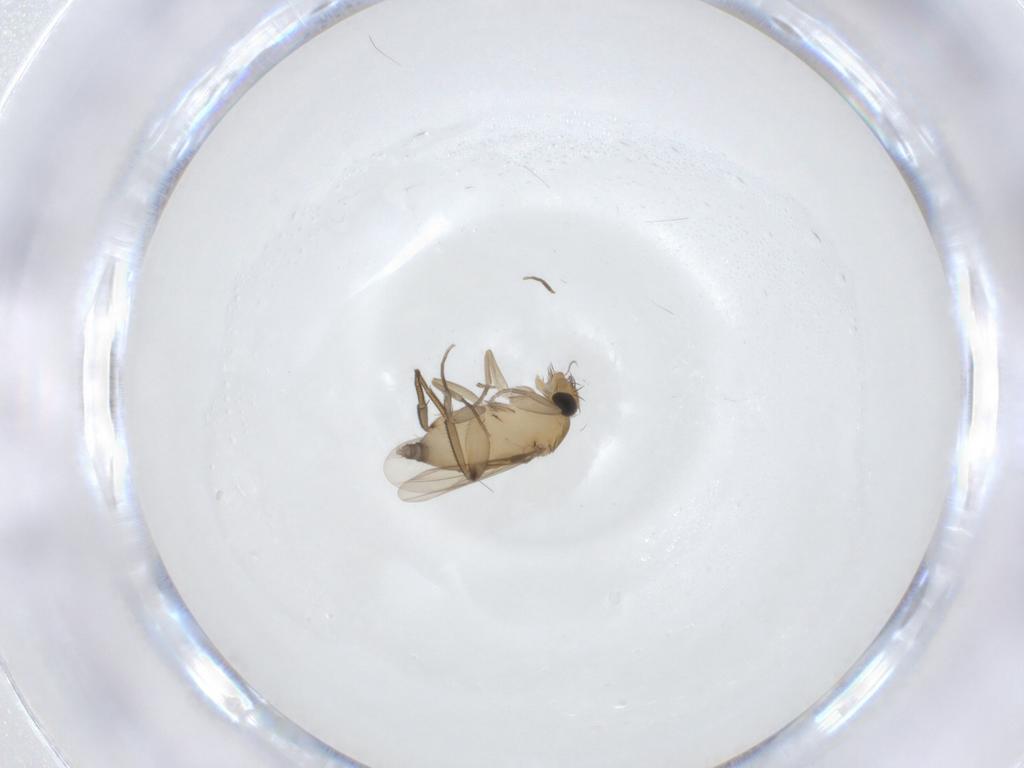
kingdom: Animalia
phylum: Arthropoda
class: Insecta
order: Diptera
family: Phoridae
